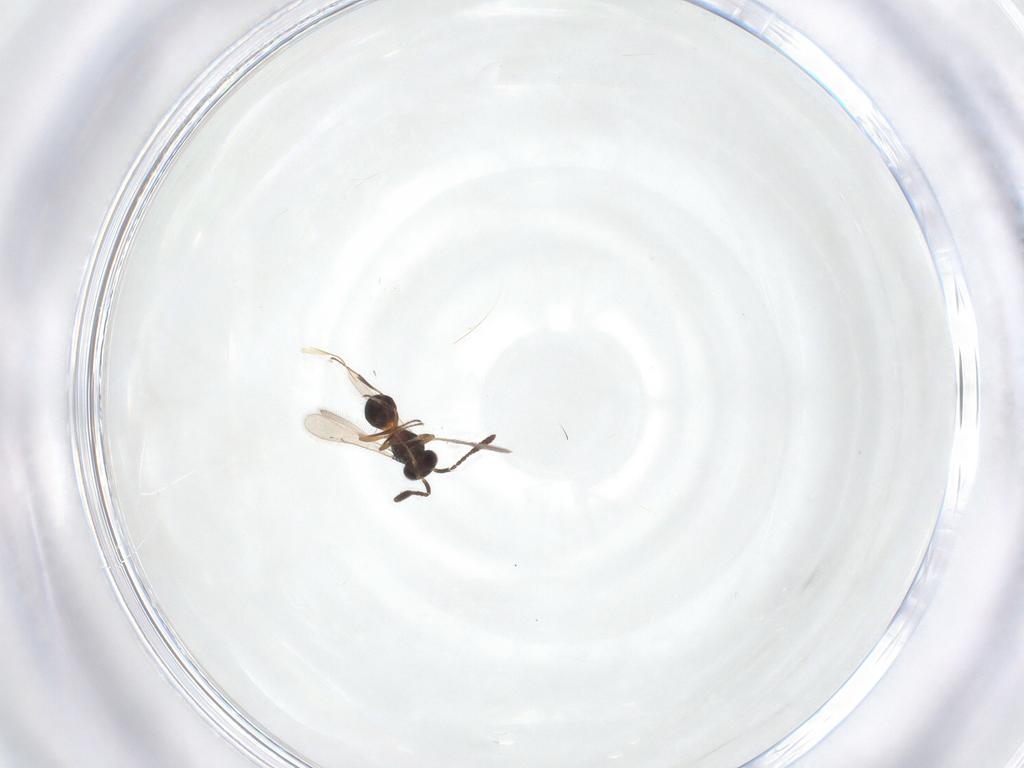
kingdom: Animalia
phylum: Arthropoda
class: Insecta
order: Hymenoptera
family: Scelionidae
